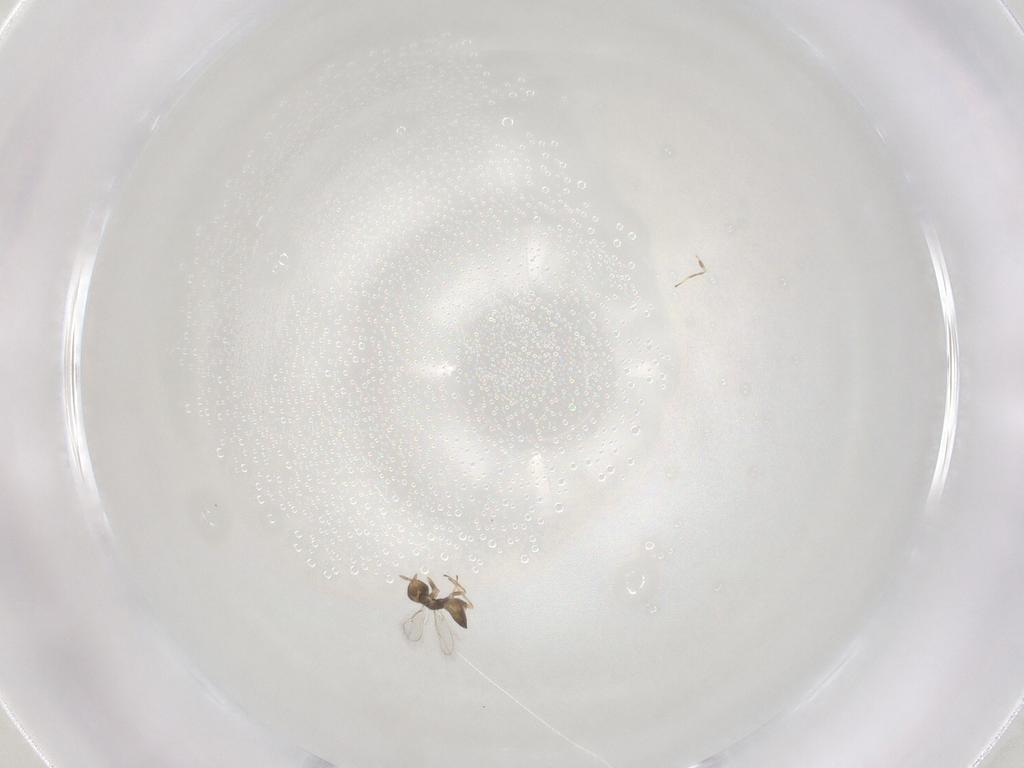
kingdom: Animalia
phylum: Arthropoda
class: Insecta
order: Hymenoptera
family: Eulophidae
